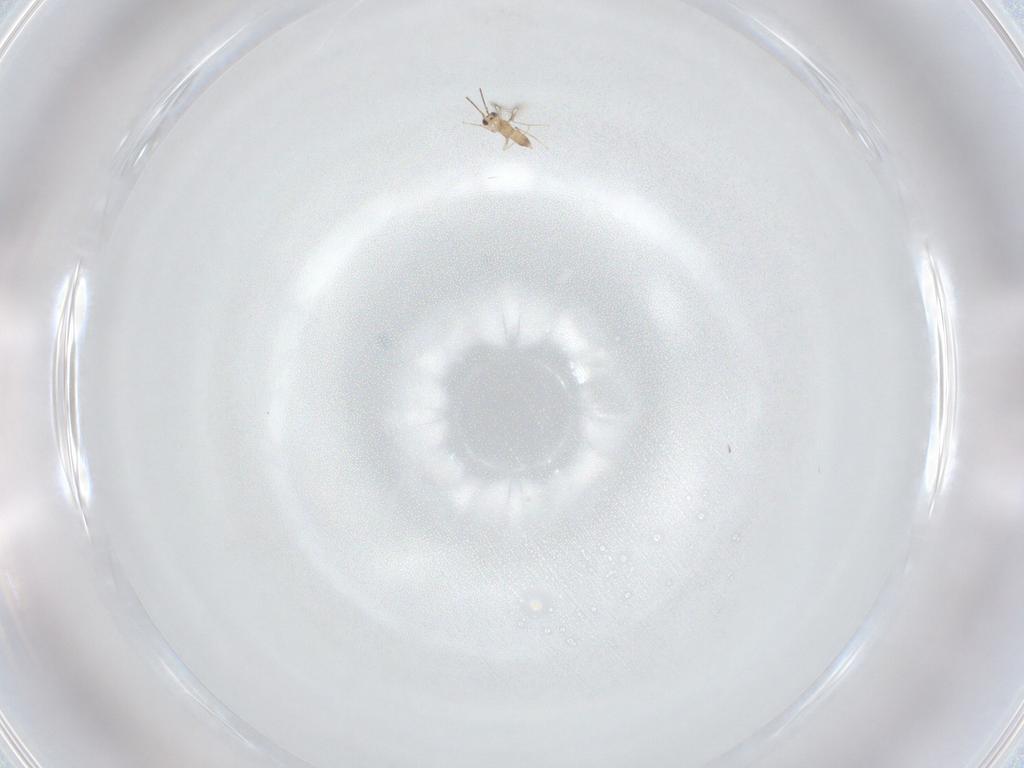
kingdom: Animalia
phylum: Arthropoda
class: Insecta
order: Hymenoptera
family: Mymaridae
